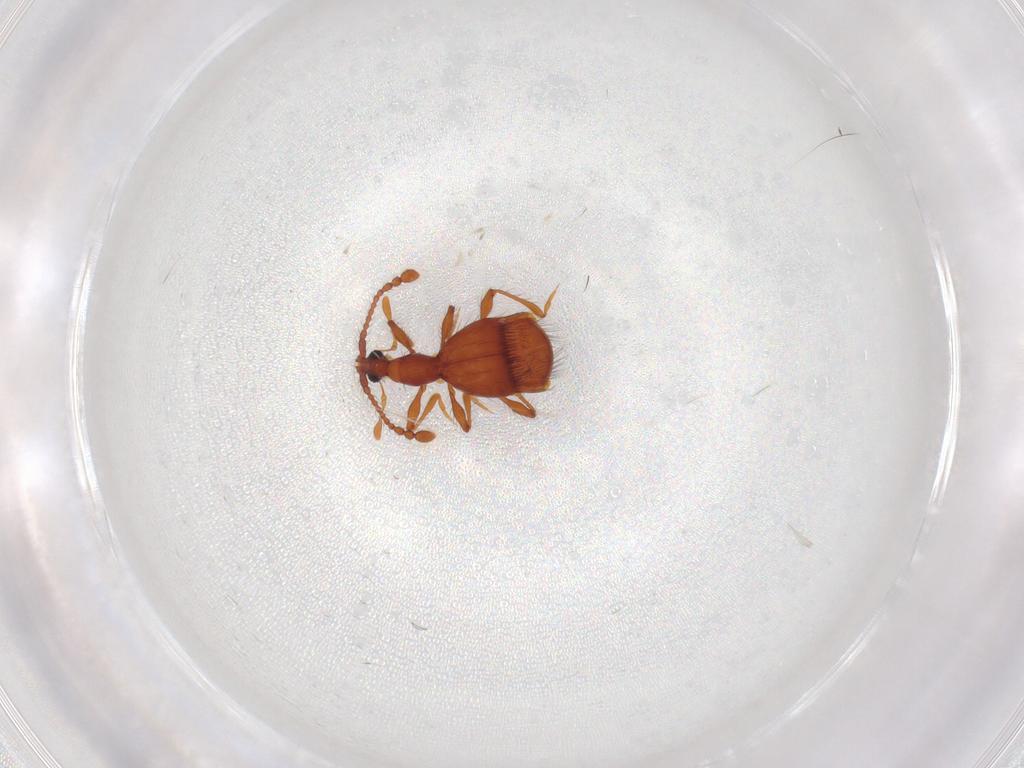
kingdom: Animalia
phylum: Arthropoda
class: Insecta
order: Coleoptera
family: Staphylinidae
